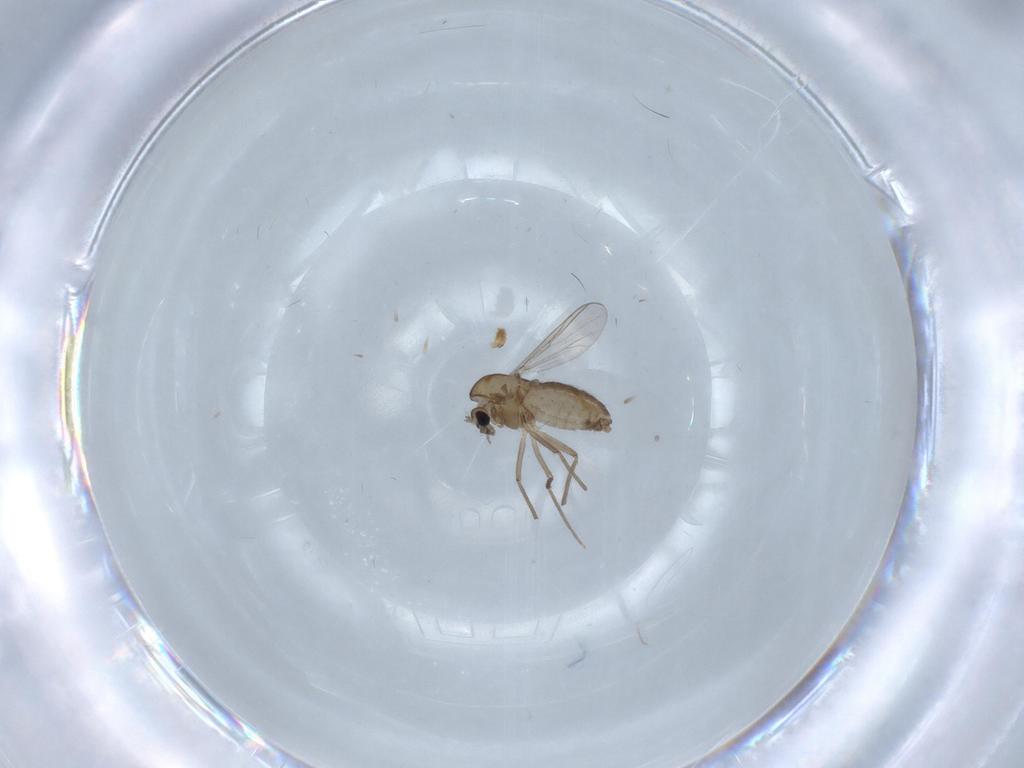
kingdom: Animalia
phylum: Arthropoda
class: Insecta
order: Diptera
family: Chironomidae
